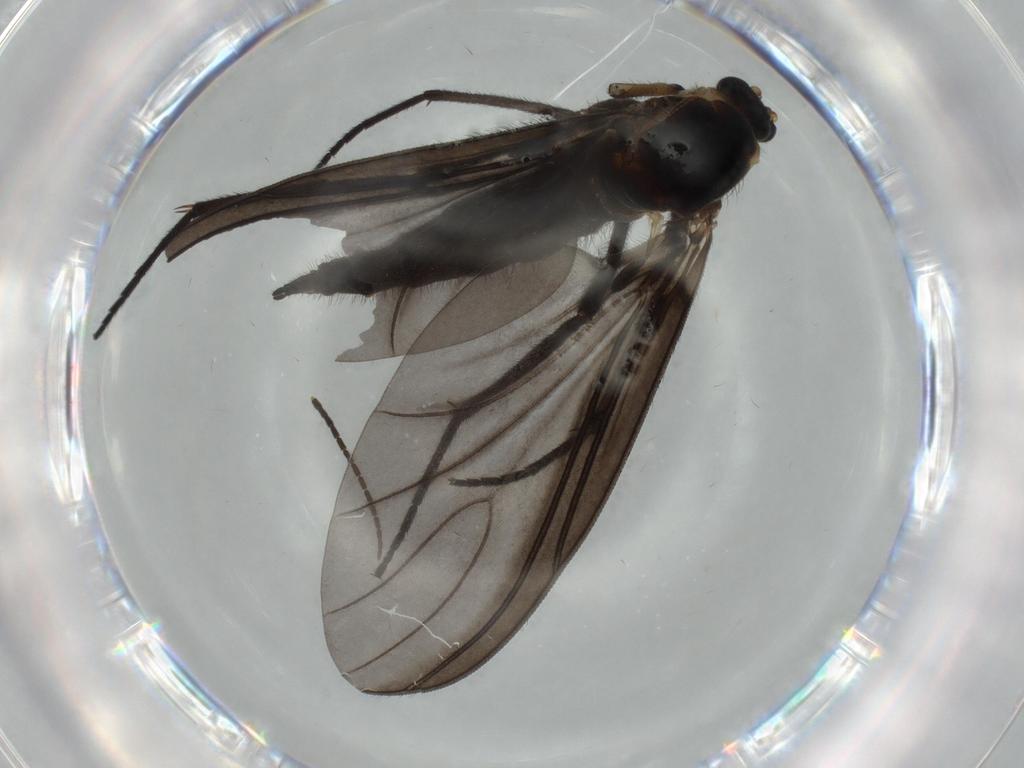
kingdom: Animalia
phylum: Arthropoda
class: Insecta
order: Diptera
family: Sciaridae
